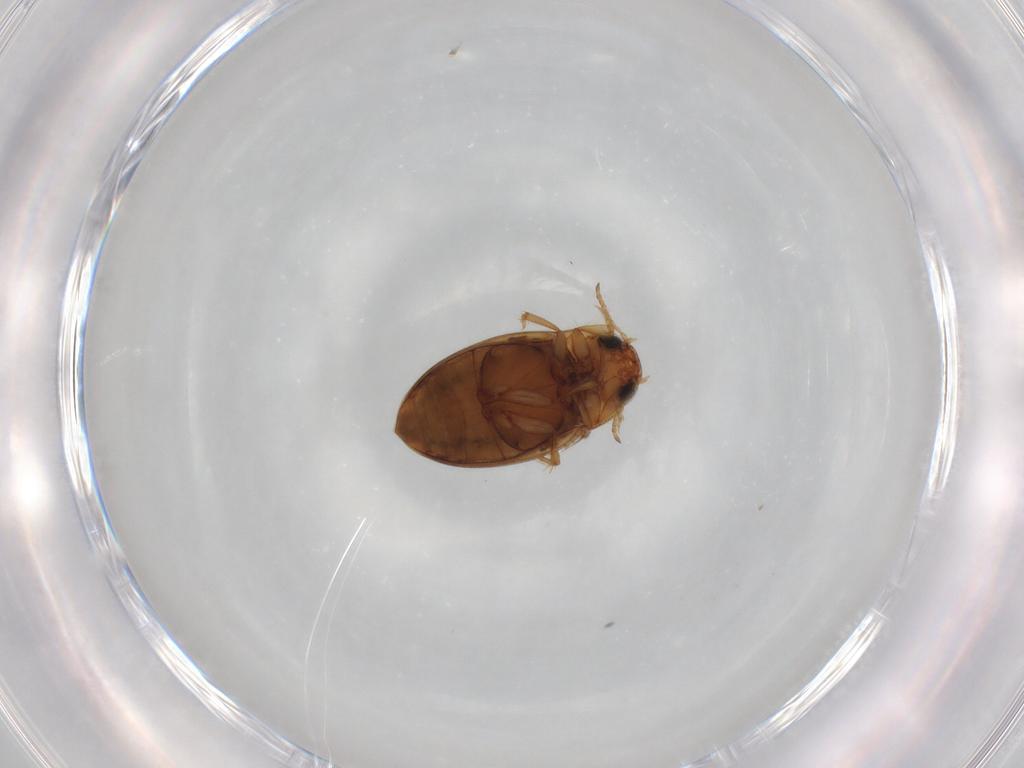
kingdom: Animalia
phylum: Arthropoda
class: Insecta
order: Coleoptera
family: Dytiscidae
